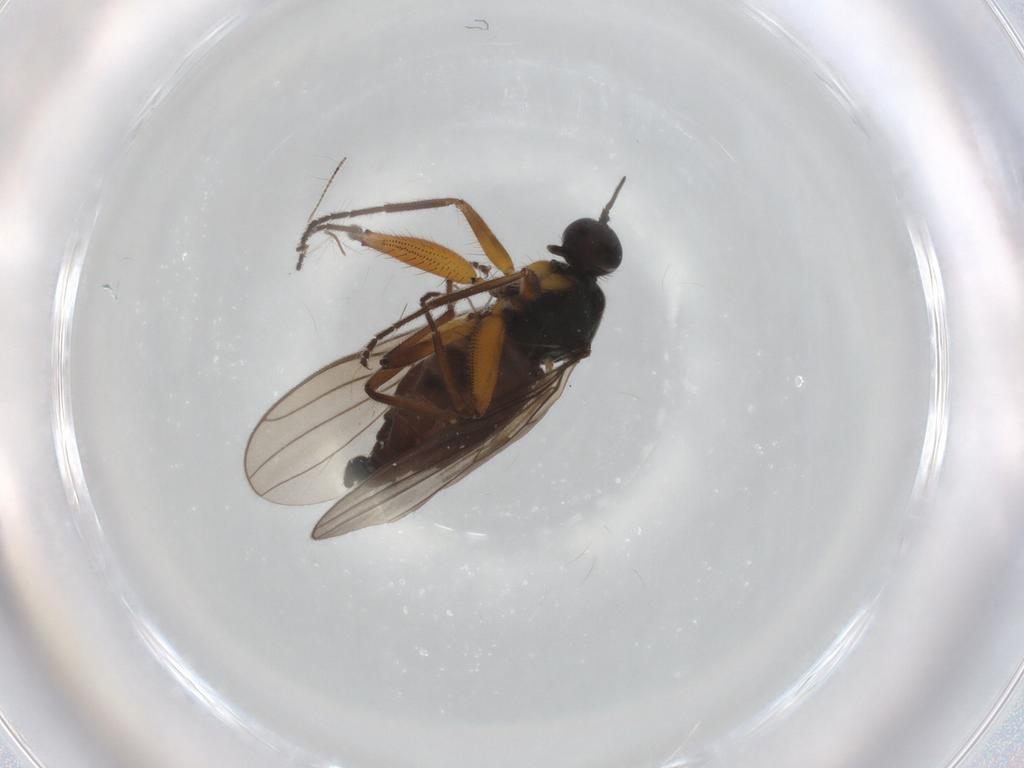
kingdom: Animalia
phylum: Arthropoda
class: Insecta
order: Diptera
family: Hybotidae
